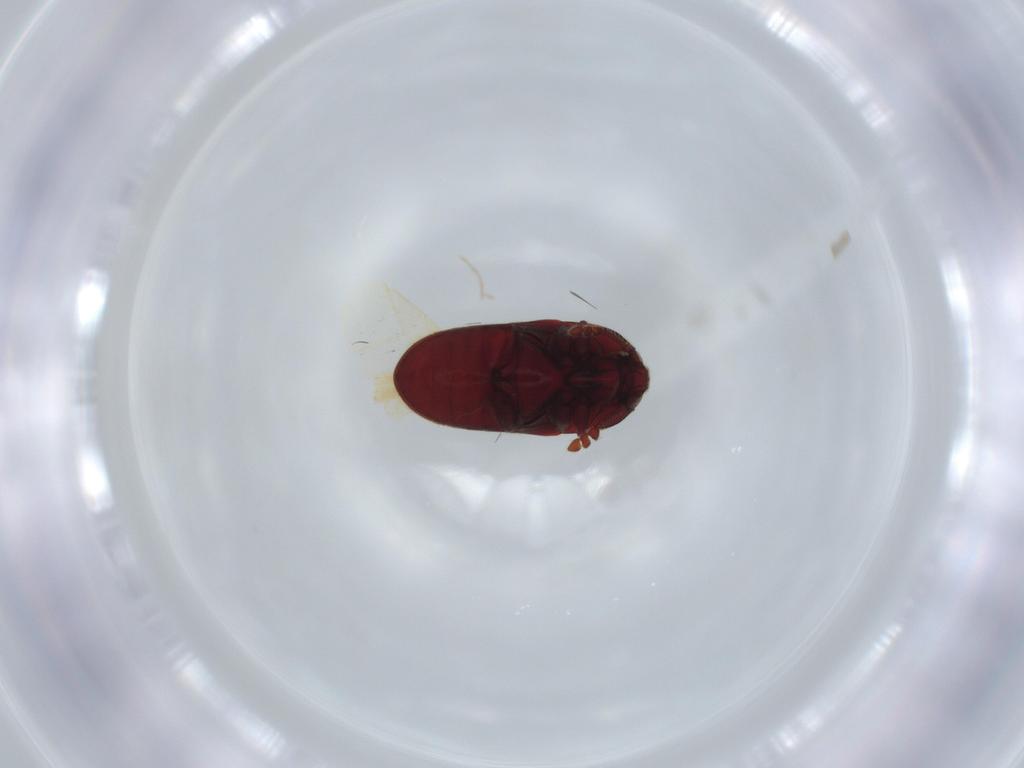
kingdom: Animalia
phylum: Arthropoda
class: Insecta
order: Coleoptera
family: Throscidae
